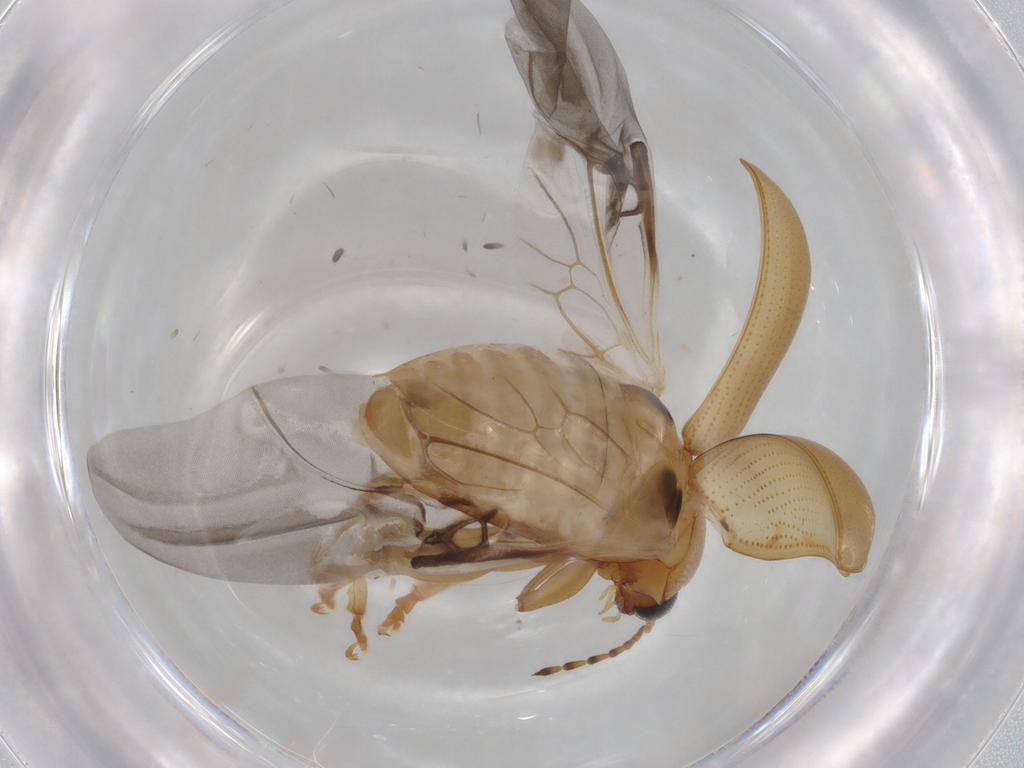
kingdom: Animalia
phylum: Arthropoda
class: Insecta
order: Coleoptera
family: Chrysomelidae
